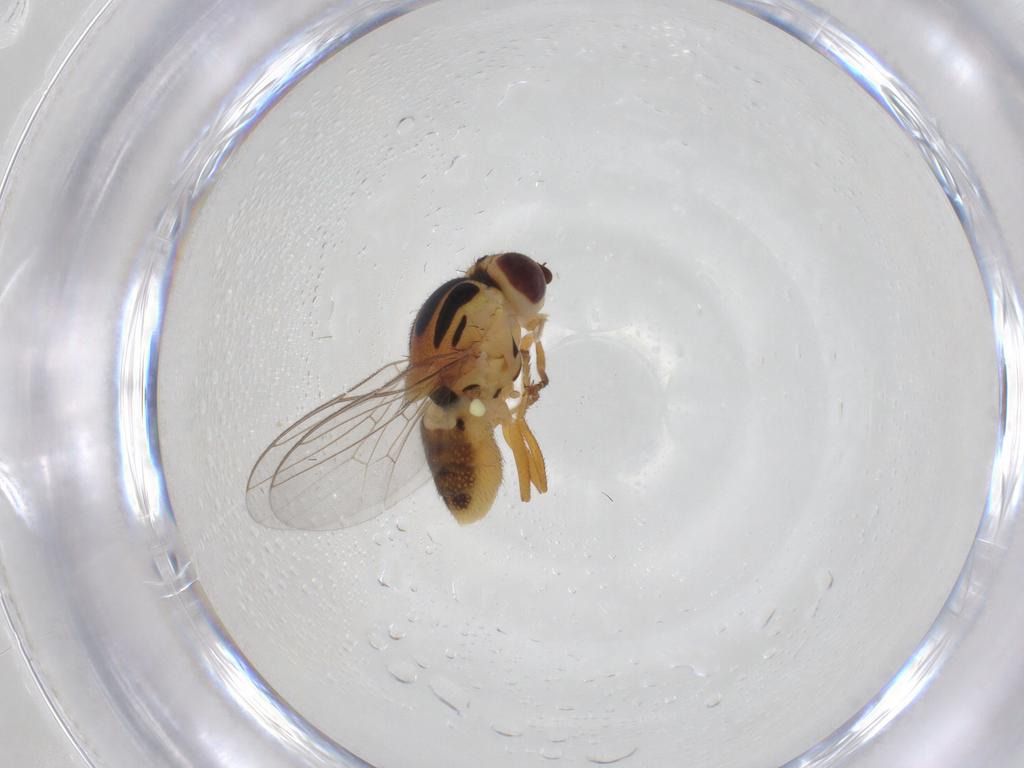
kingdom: Animalia
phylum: Arthropoda
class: Insecta
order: Diptera
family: Chloropidae
